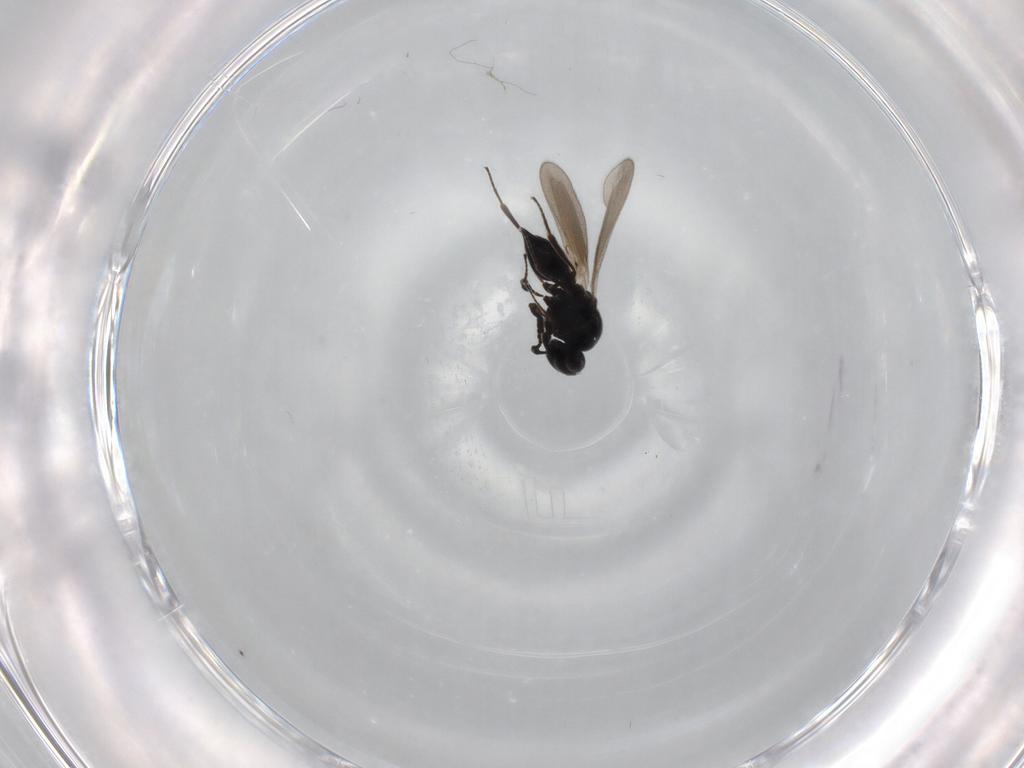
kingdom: Animalia
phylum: Arthropoda
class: Insecta
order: Hymenoptera
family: Platygastridae
